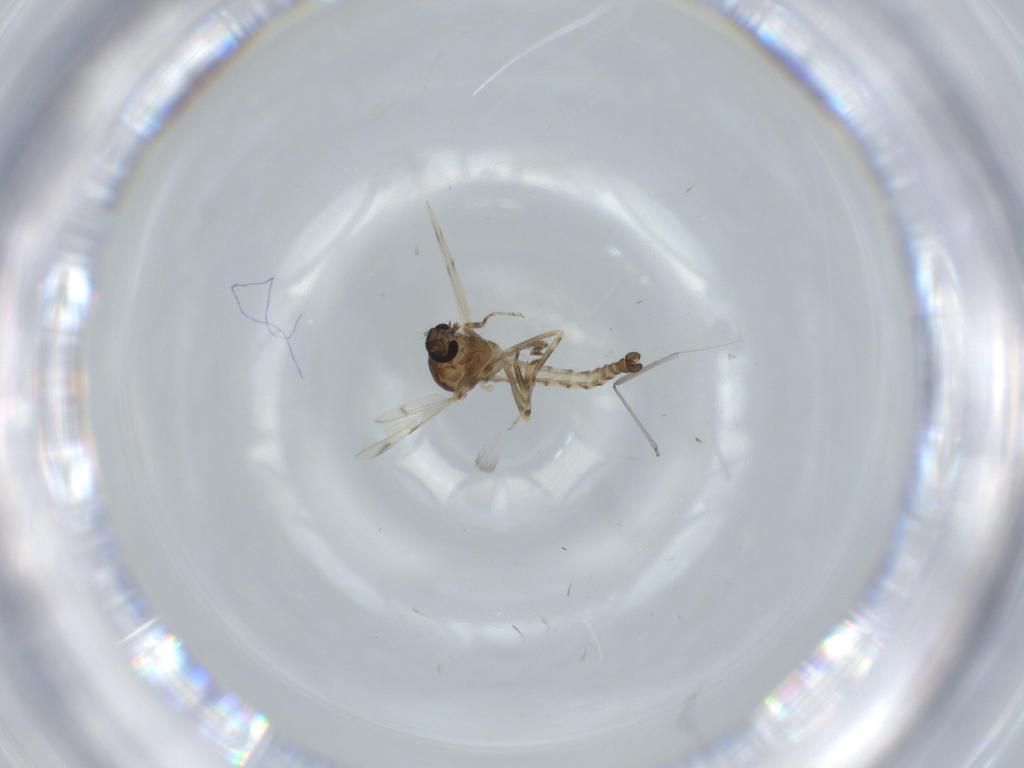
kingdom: Animalia
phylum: Arthropoda
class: Insecta
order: Diptera
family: Ceratopogonidae
